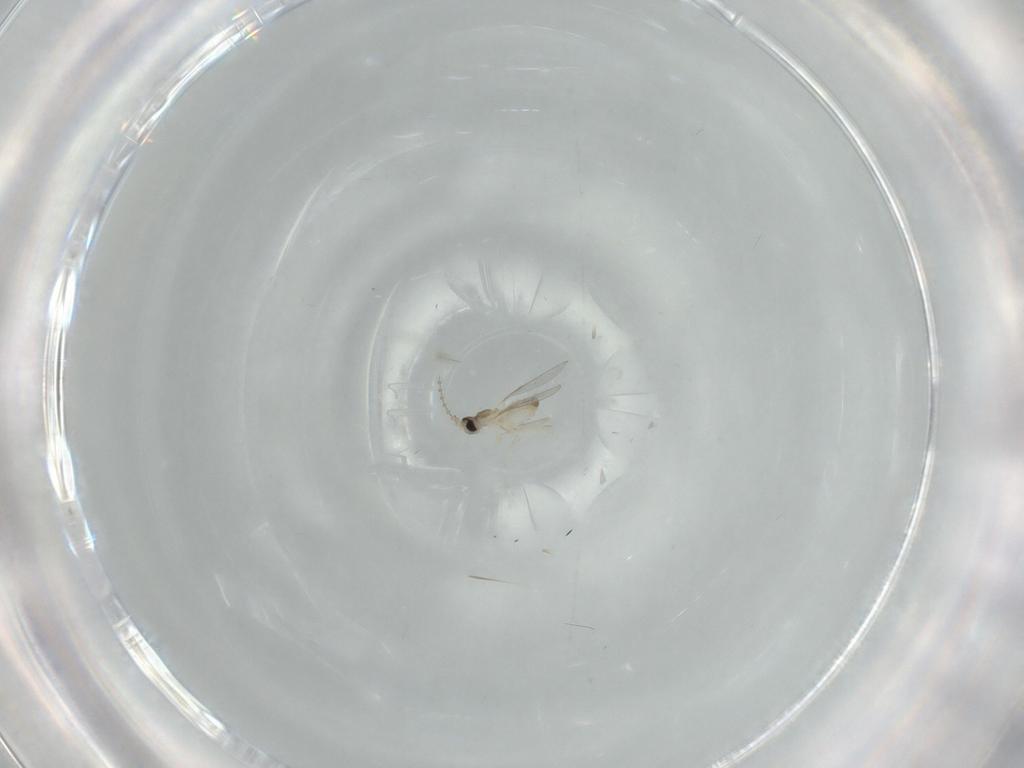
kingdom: Animalia
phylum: Arthropoda
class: Insecta
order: Diptera
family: Cecidomyiidae
